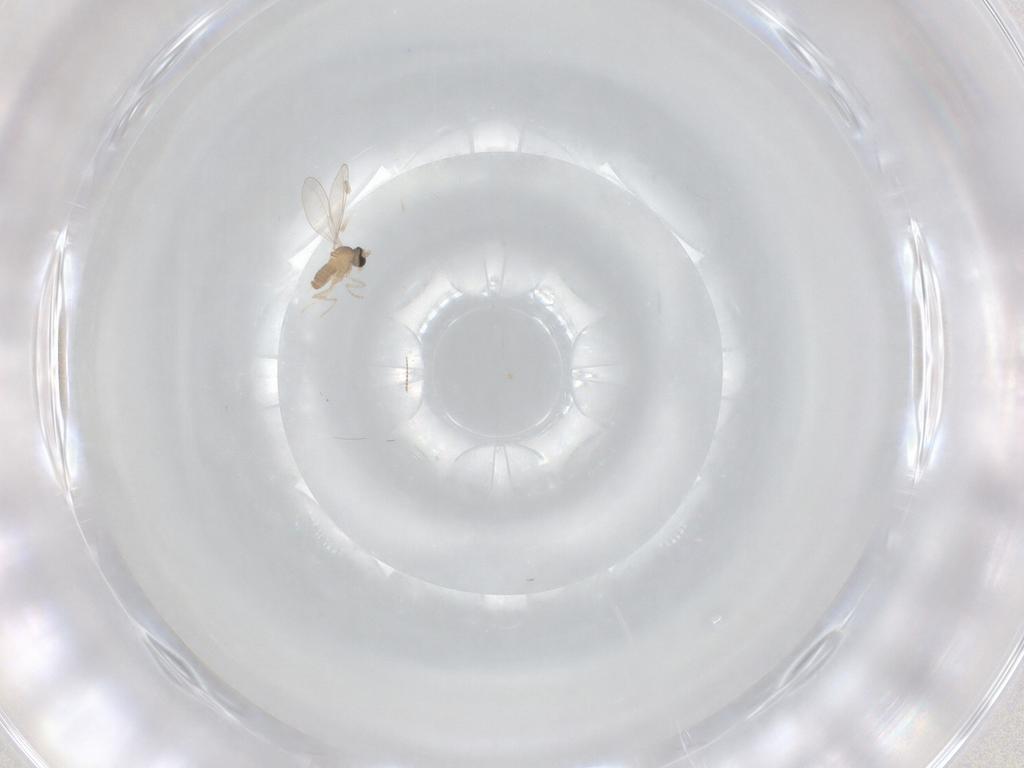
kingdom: Animalia
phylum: Arthropoda
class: Insecta
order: Diptera
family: Cecidomyiidae
